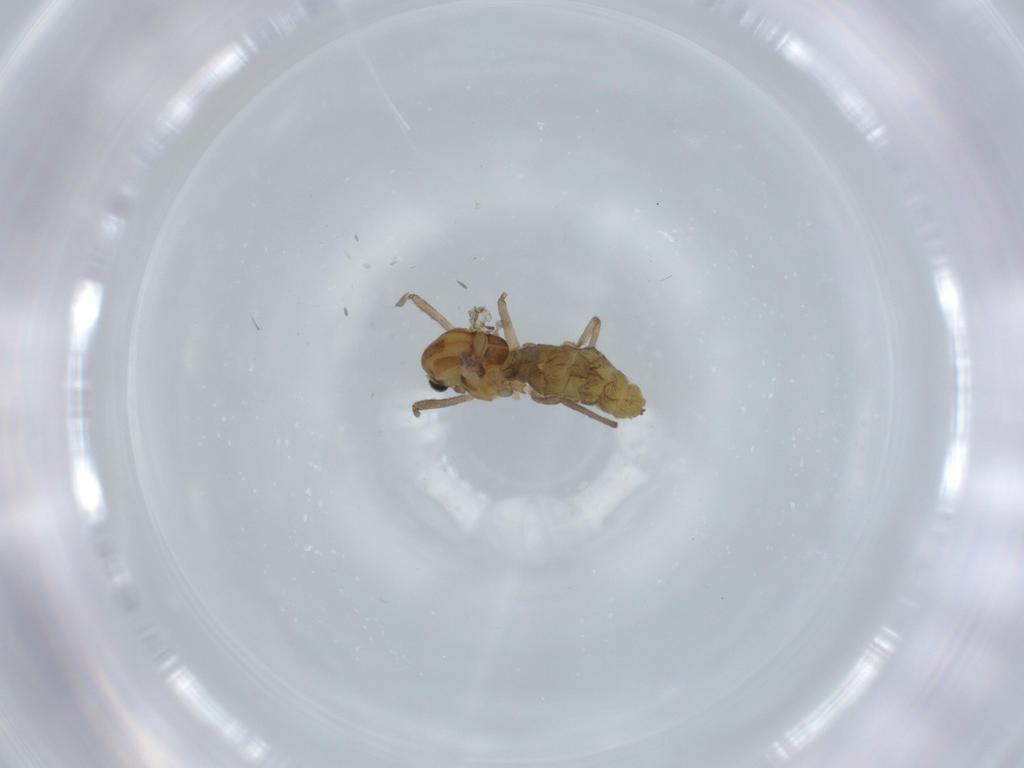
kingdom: Animalia
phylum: Arthropoda
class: Insecta
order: Diptera
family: Chironomidae
